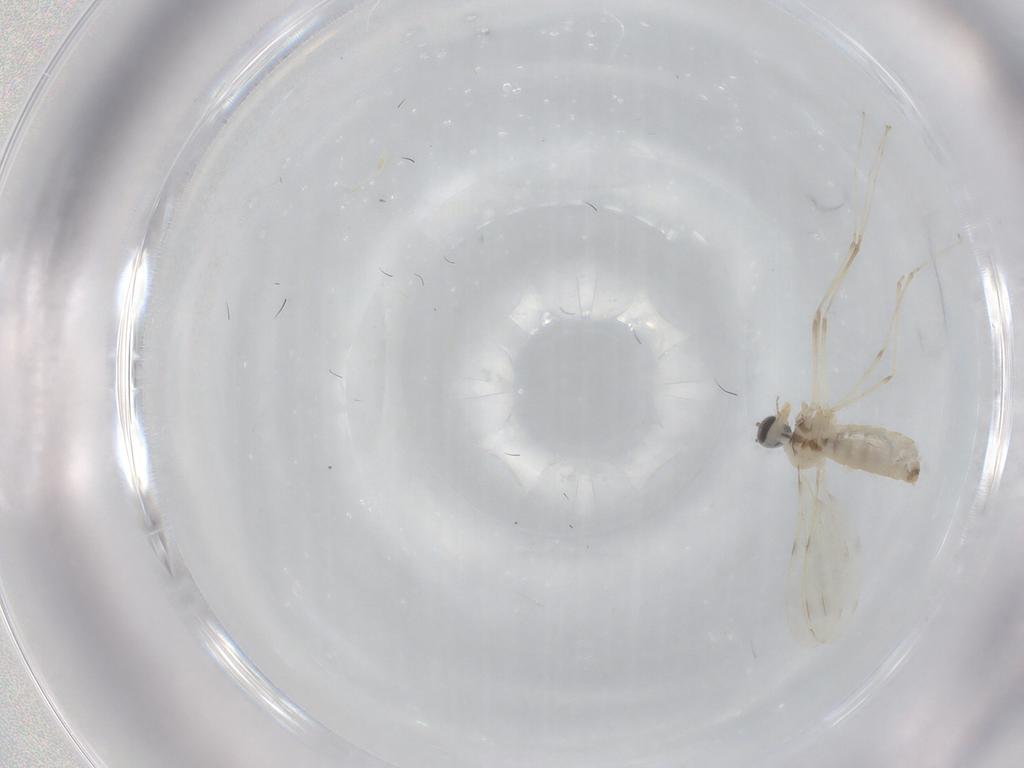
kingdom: Animalia
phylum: Arthropoda
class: Insecta
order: Diptera
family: Cecidomyiidae
